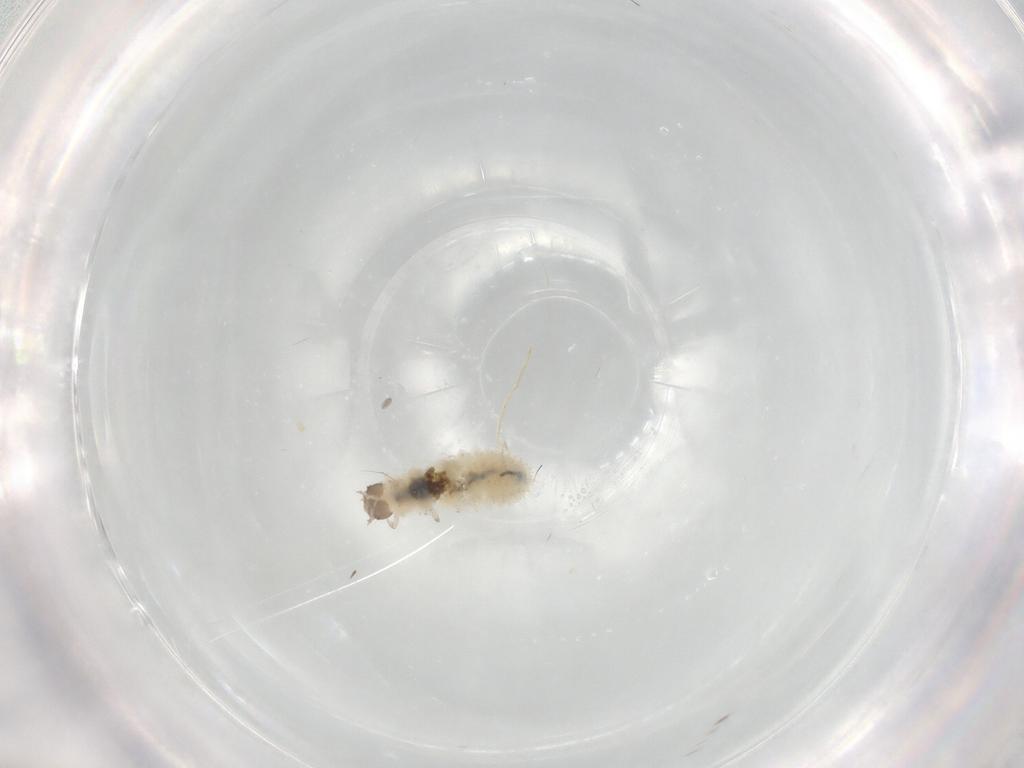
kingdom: Animalia
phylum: Arthropoda
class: Insecta
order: Coleoptera
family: Latridiidae
